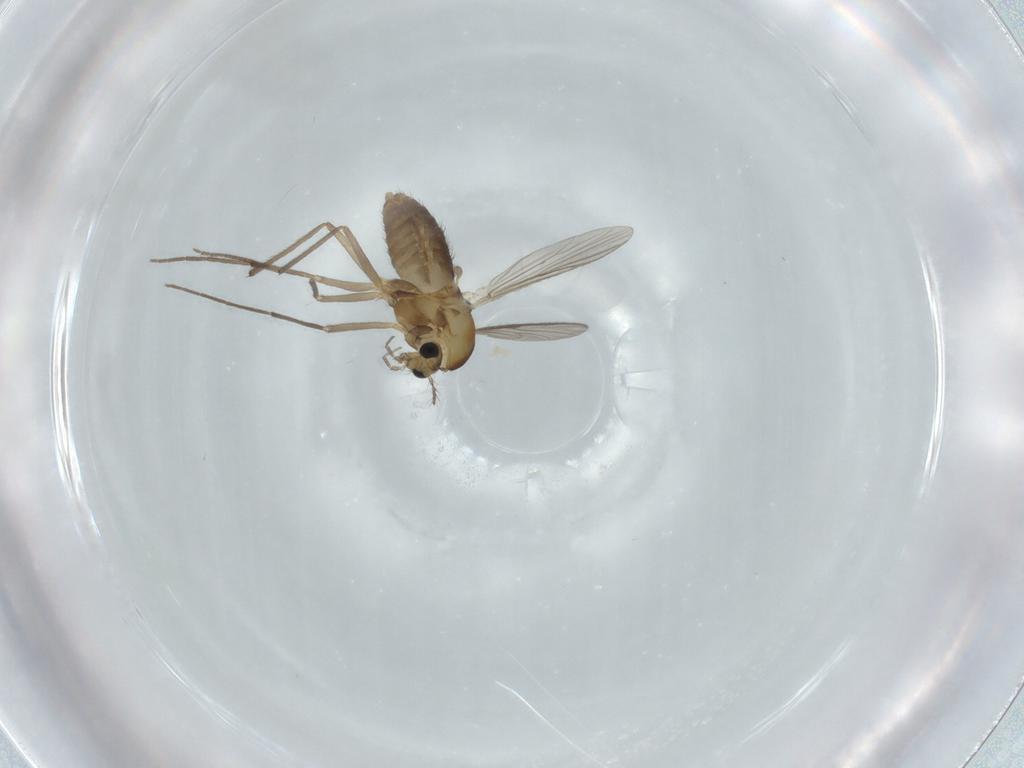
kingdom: Animalia
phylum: Arthropoda
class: Insecta
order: Diptera
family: Chironomidae
